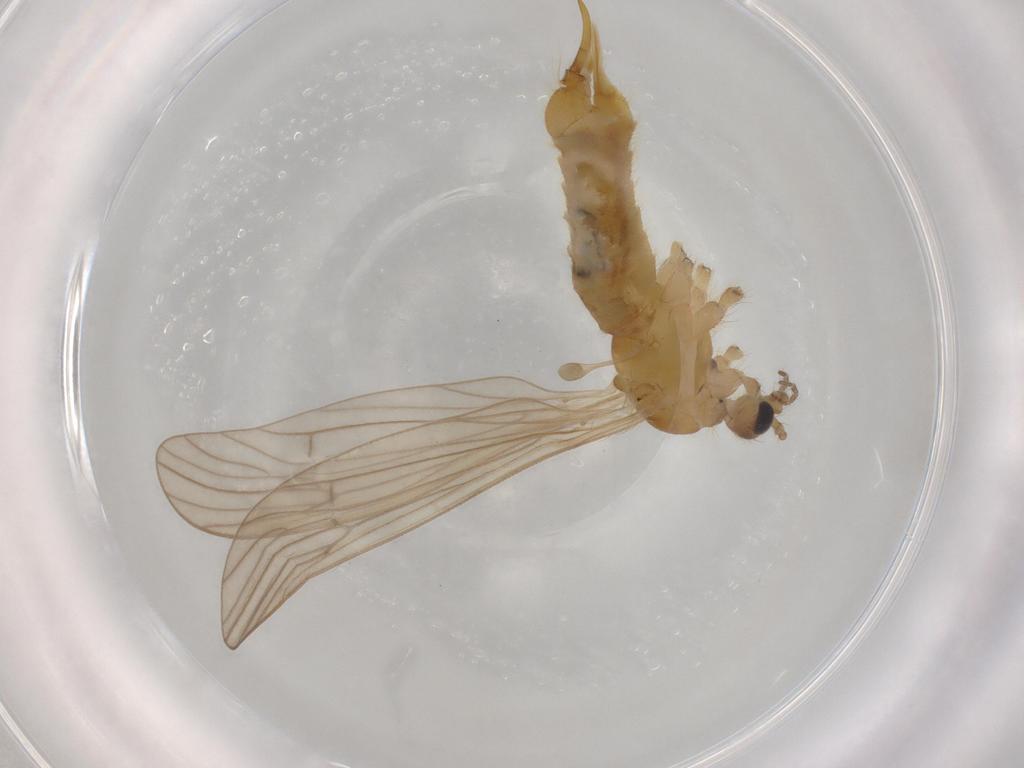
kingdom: Animalia
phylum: Arthropoda
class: Insecta
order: Diptera
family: Limoniidae
